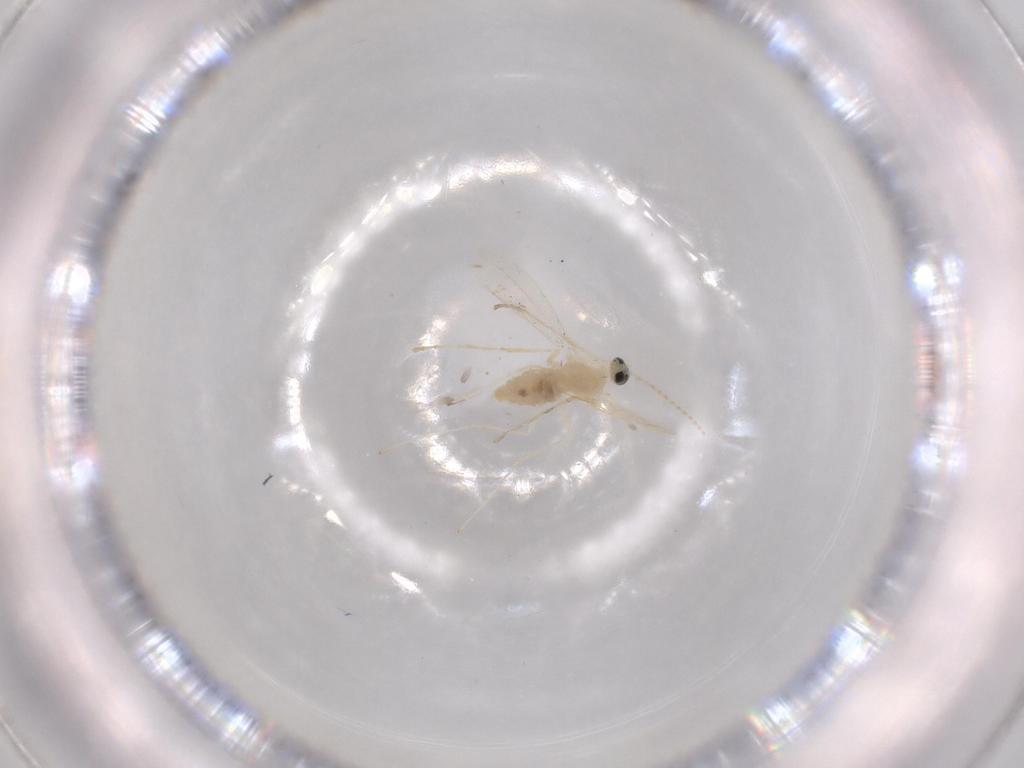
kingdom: Animalia
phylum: Arthropoda
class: Insecta
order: Diptera
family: Cecidomyiidae
